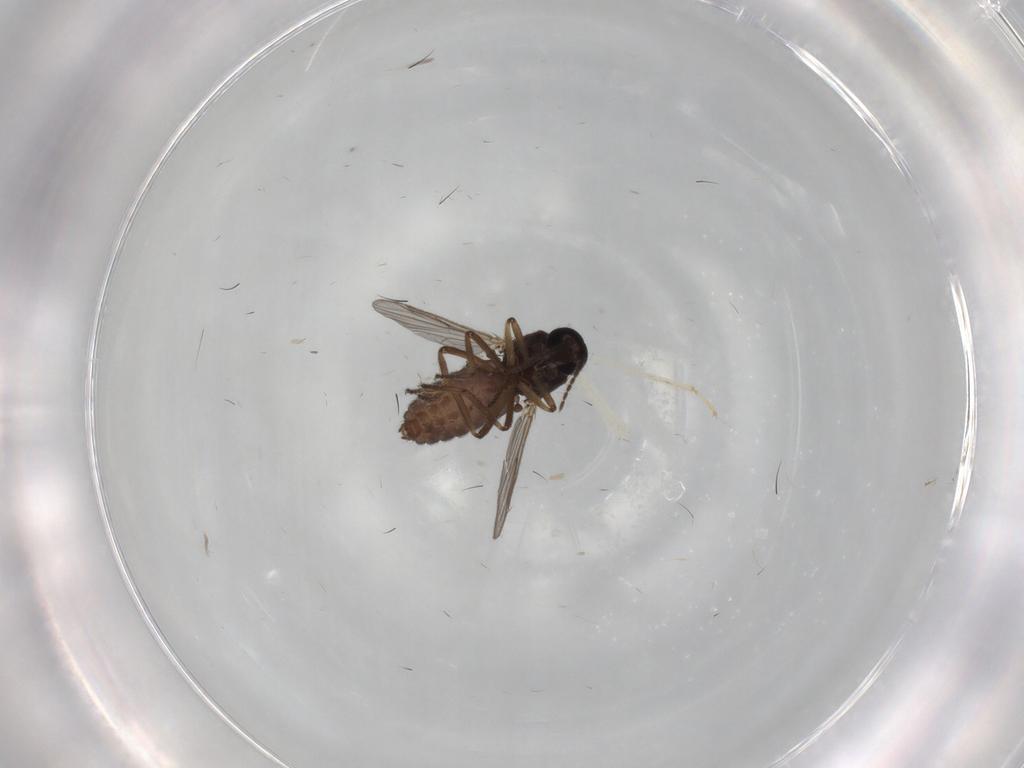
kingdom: Animalia
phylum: Arthropoda
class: Insecta
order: Diptera
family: Ceratopogonidae
